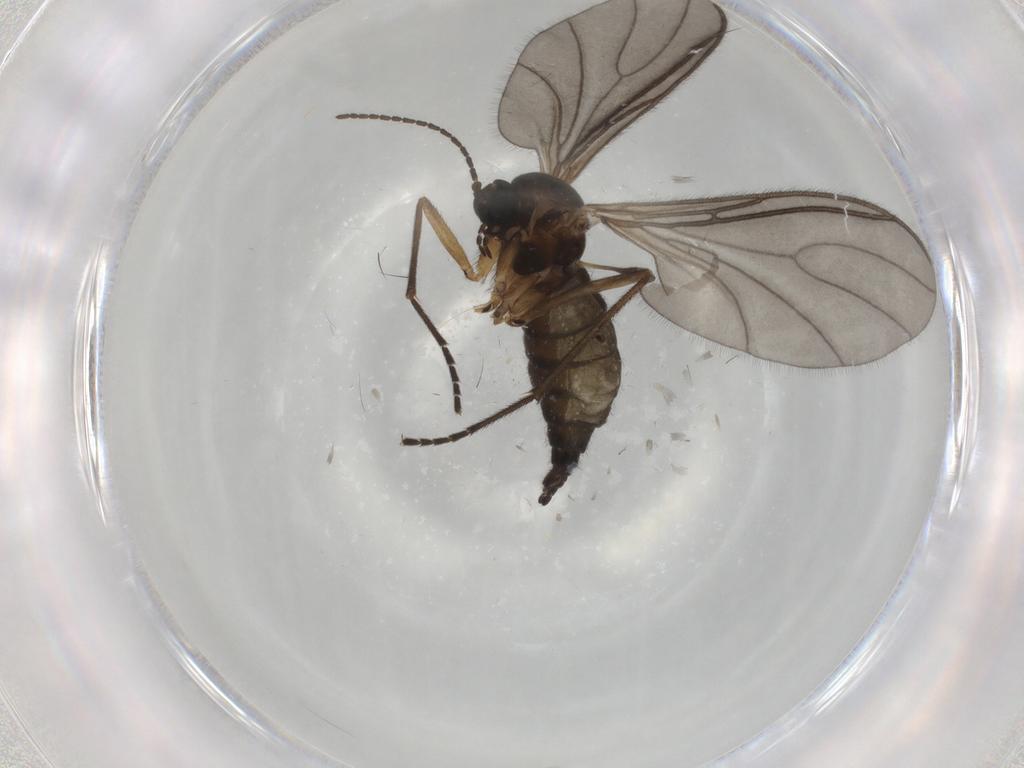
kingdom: Animalia
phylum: Arthropoda
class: Insecta
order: Diptera
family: Sciaridae
